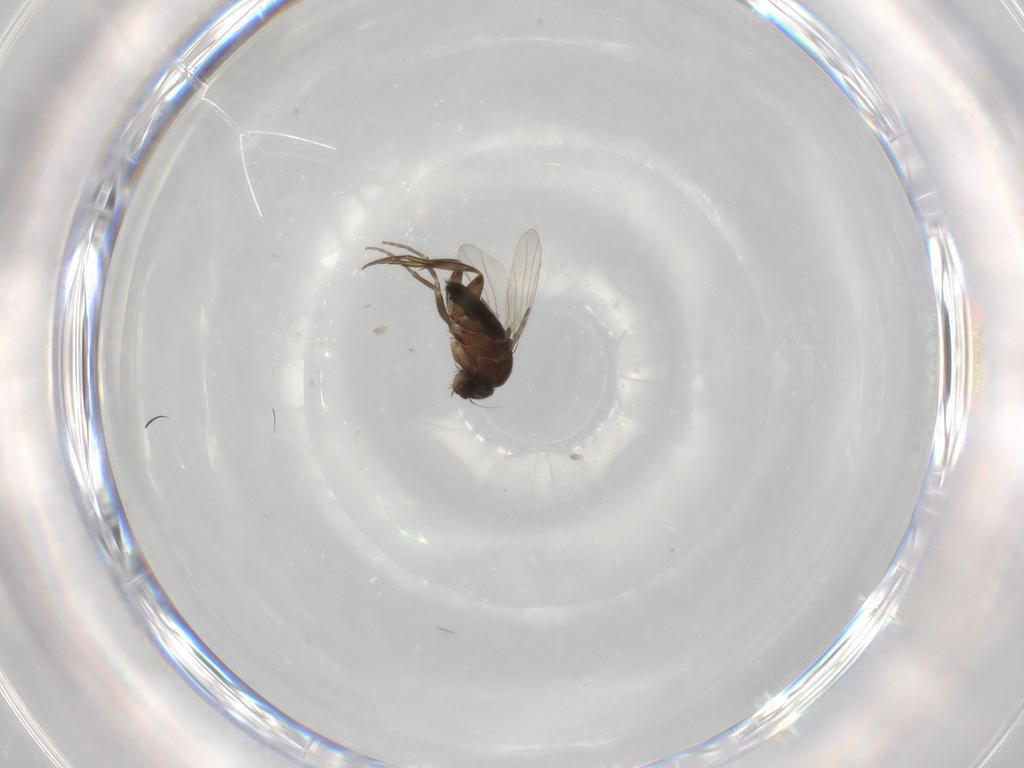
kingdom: Animalia
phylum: Arthropoda
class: Insecta
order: Diptera
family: Phoridae
